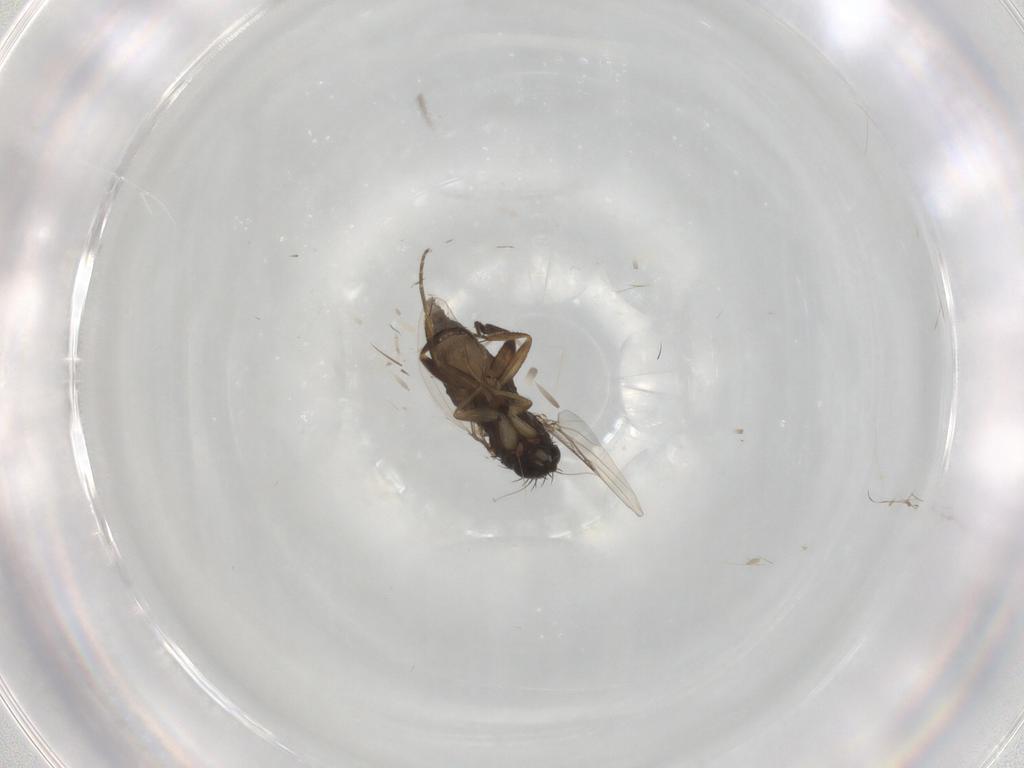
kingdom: Animalia
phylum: Arthropoda
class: Insecta
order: Diptera
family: Phoridae
